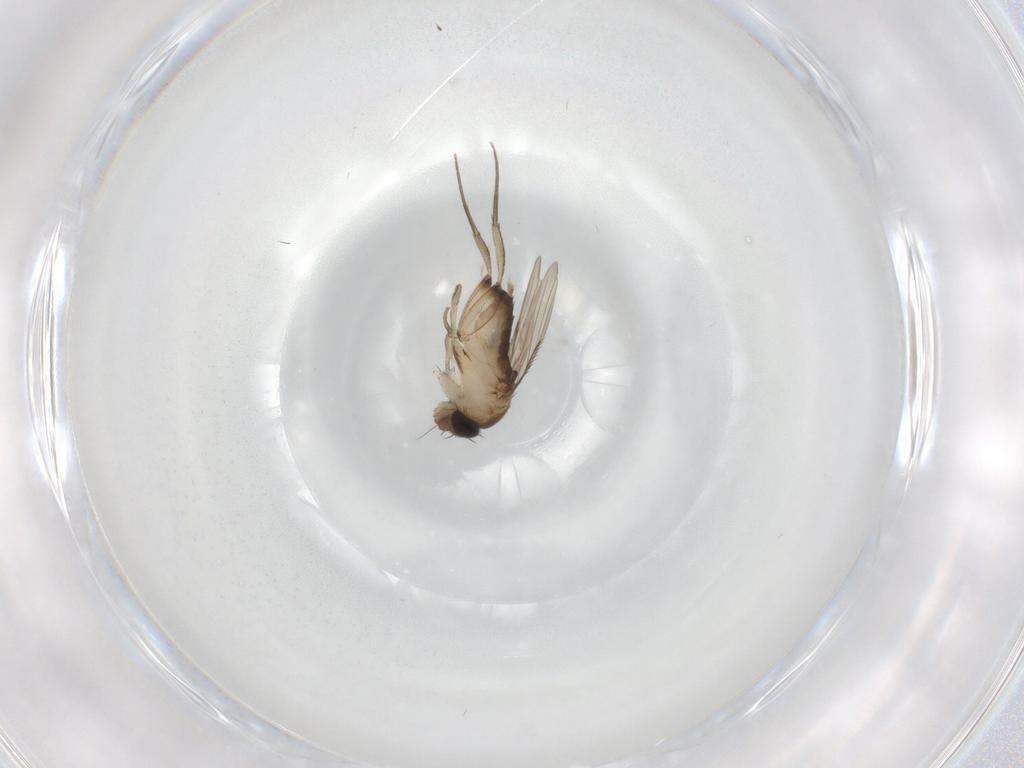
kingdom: Animalia
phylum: Arthropoda
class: Insecta
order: Diptera
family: Phoridae
